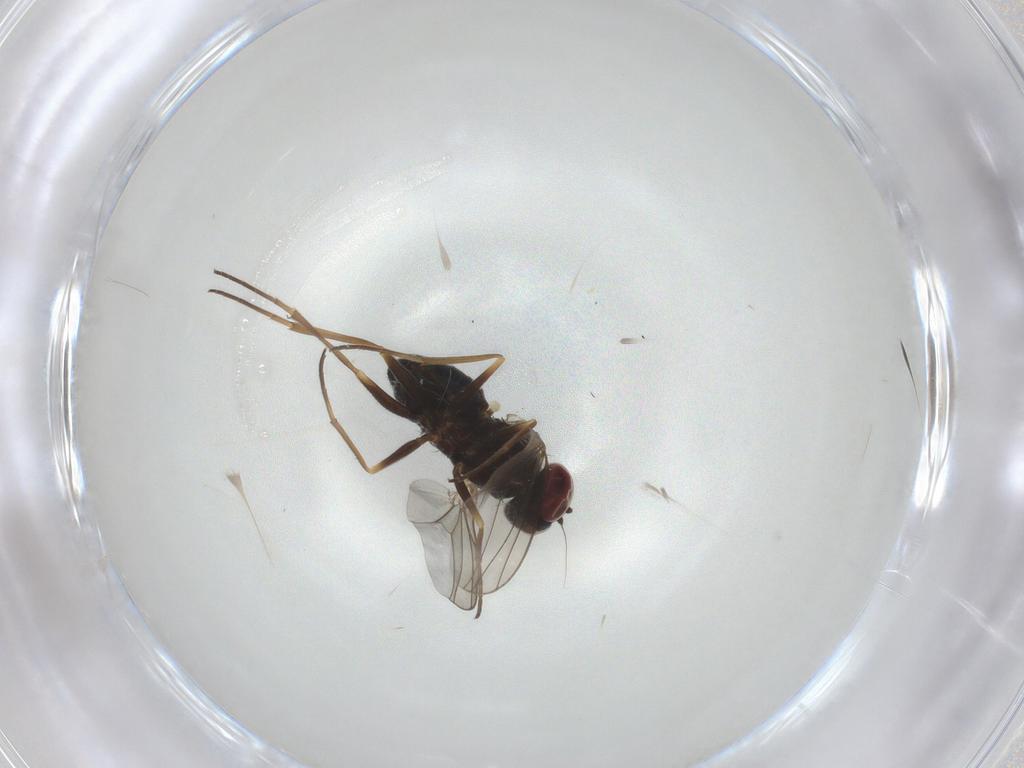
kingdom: Animalia
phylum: Arthropoda
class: Insecta
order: Diptera
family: Dolichopodidae
